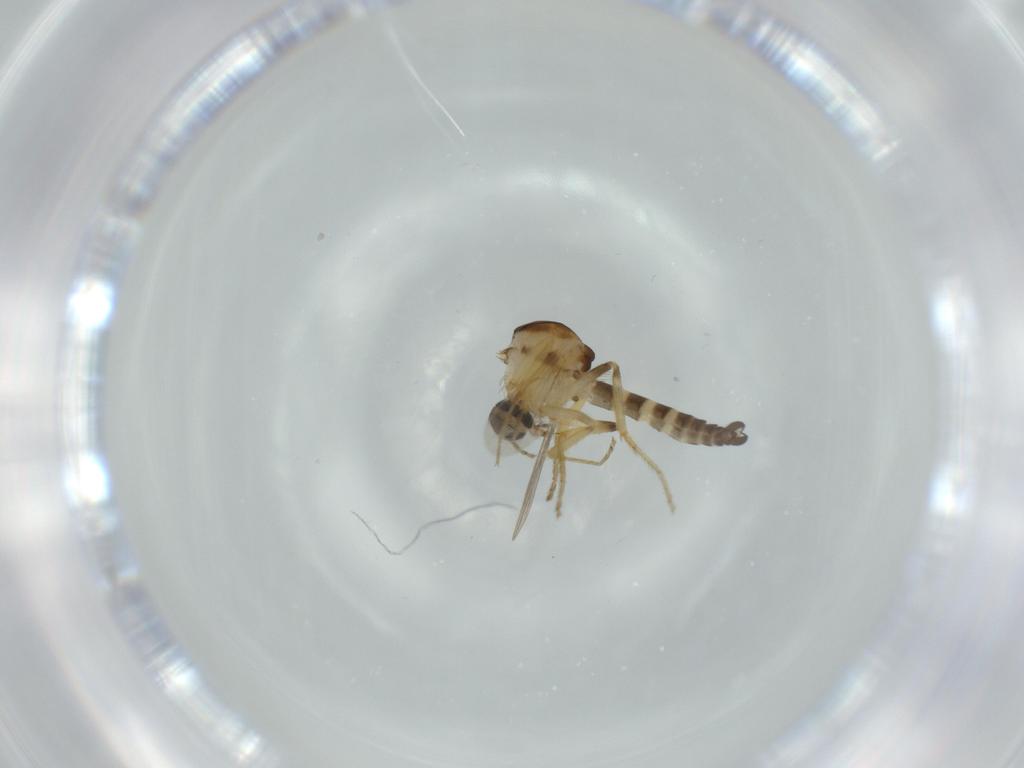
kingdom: Animalia
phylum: Arthropoda
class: Insecta
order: Diptera
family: Ceratopogonidae
